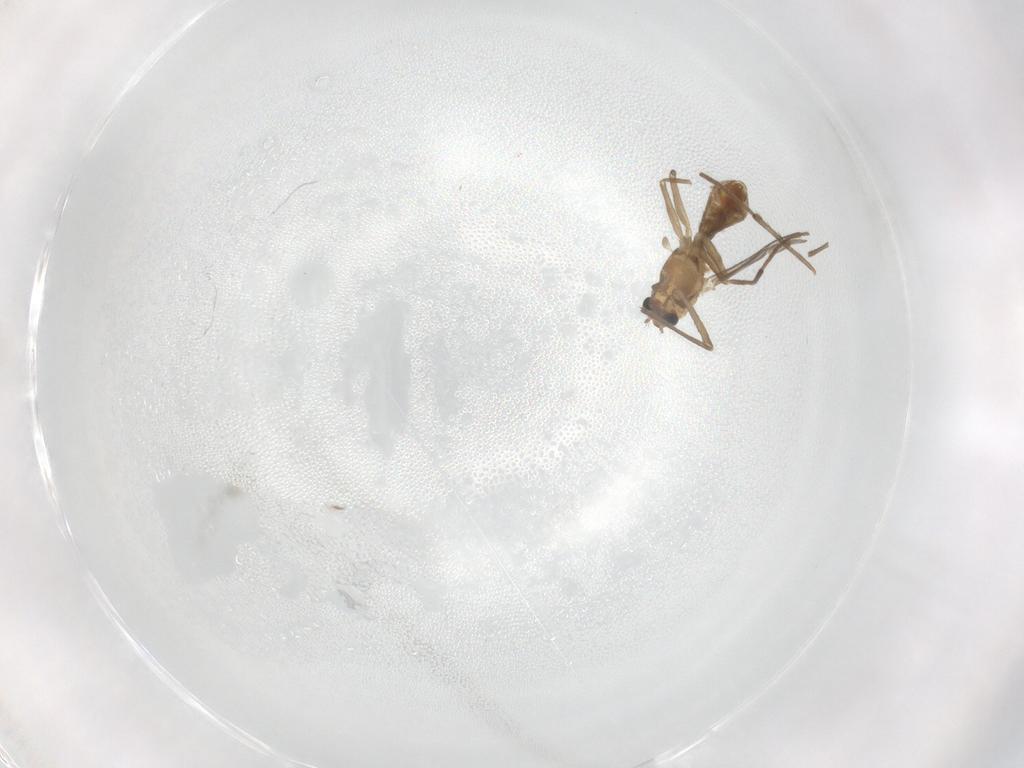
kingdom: Animalia
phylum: Arthropoda
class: Insecta
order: Diptera
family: Chironomidae
